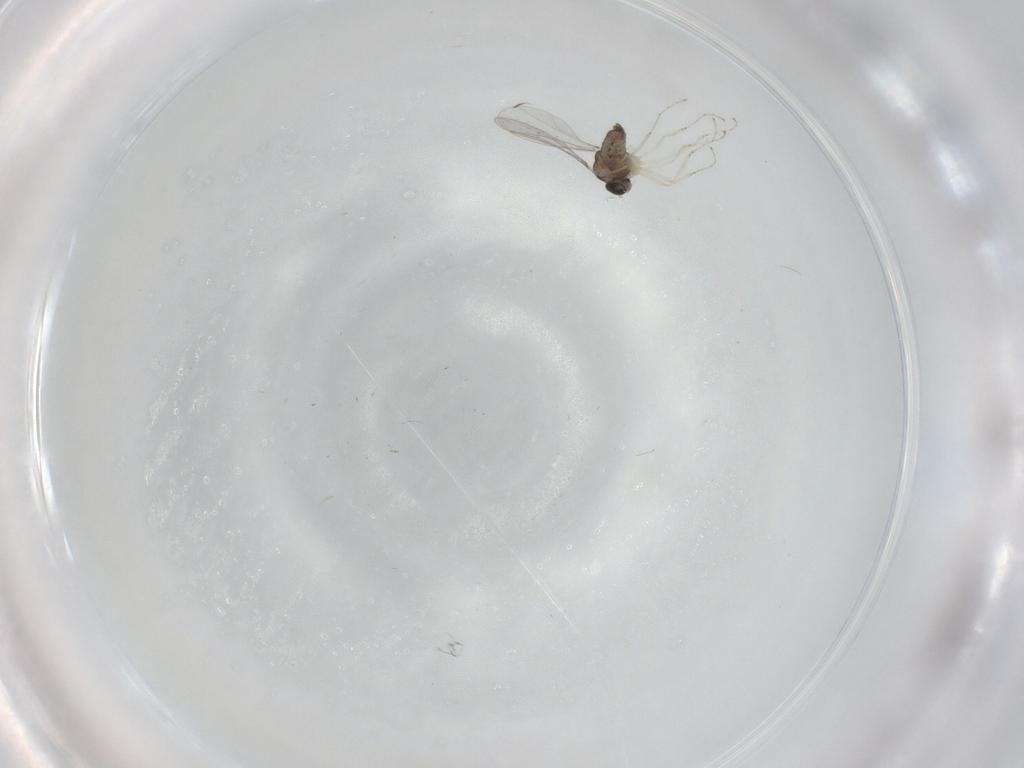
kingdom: Animalia
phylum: Arthropoda
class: Insecta
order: Diptera
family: Cecidomyiidae
